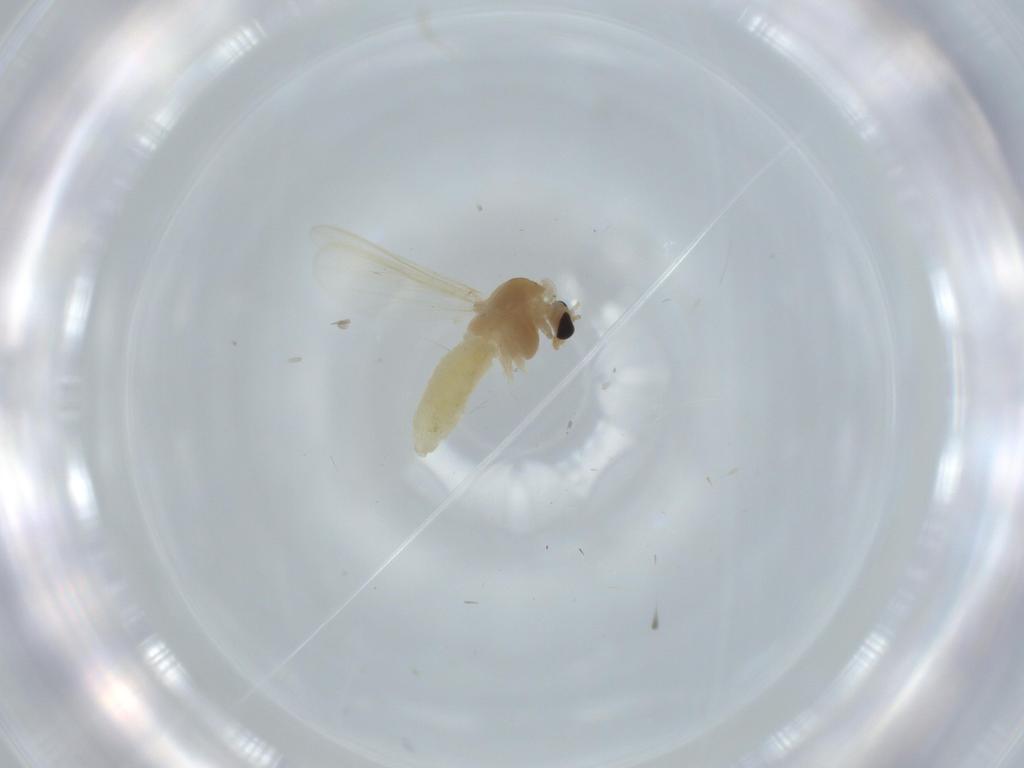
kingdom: Animalia
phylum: Arthropoda
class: Insecta
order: Diptera
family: Chironomidae
